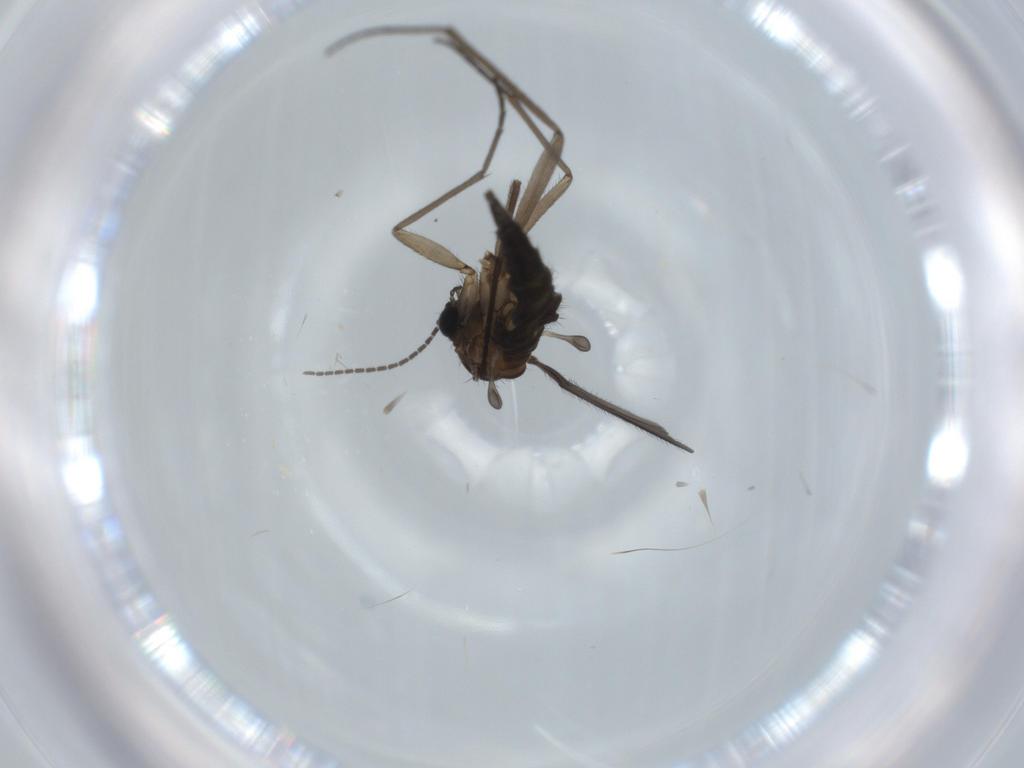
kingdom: Animalia
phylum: Arthropoda
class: Insecta
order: Diptera
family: Sciaridae
